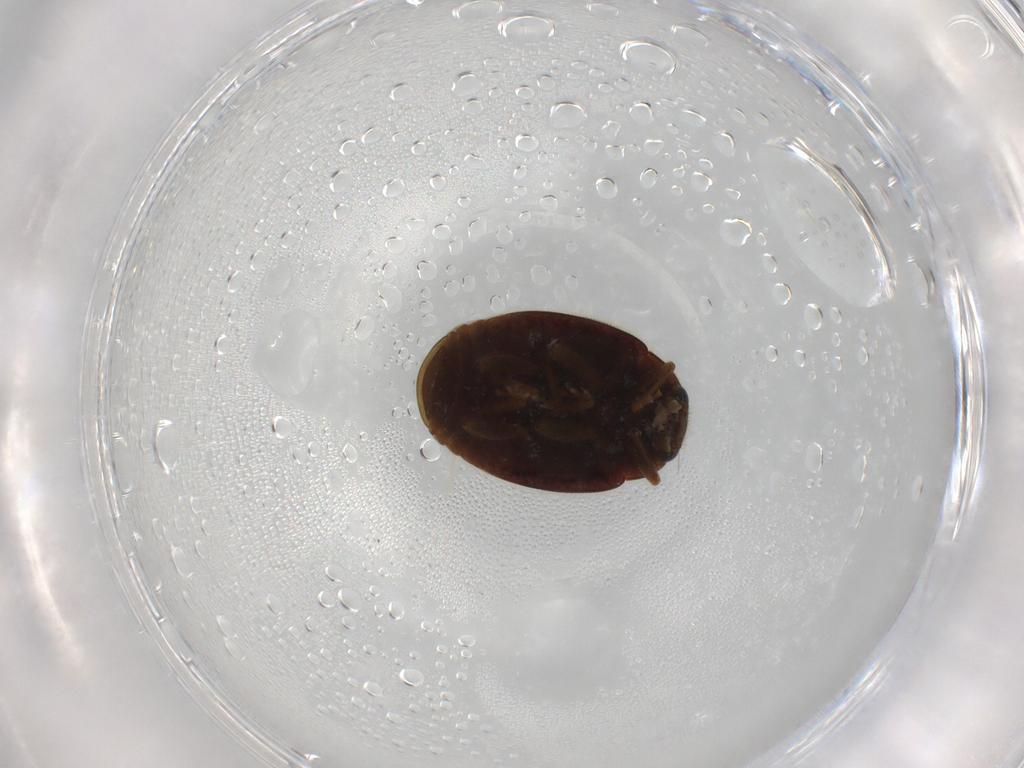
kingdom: Animalia
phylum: Arthropoda
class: Insecta
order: Coleoptera
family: Coccinellidae
